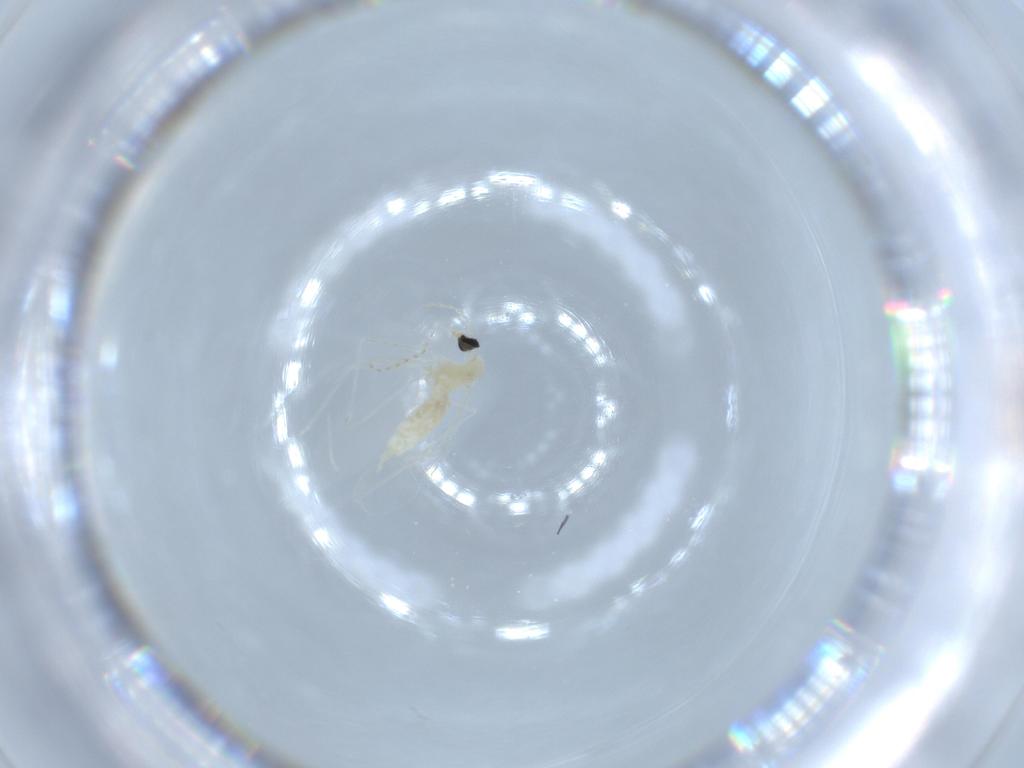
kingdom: Animalia
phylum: Arthropoda
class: Insecta
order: Diptera
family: Cecidomyiidae
